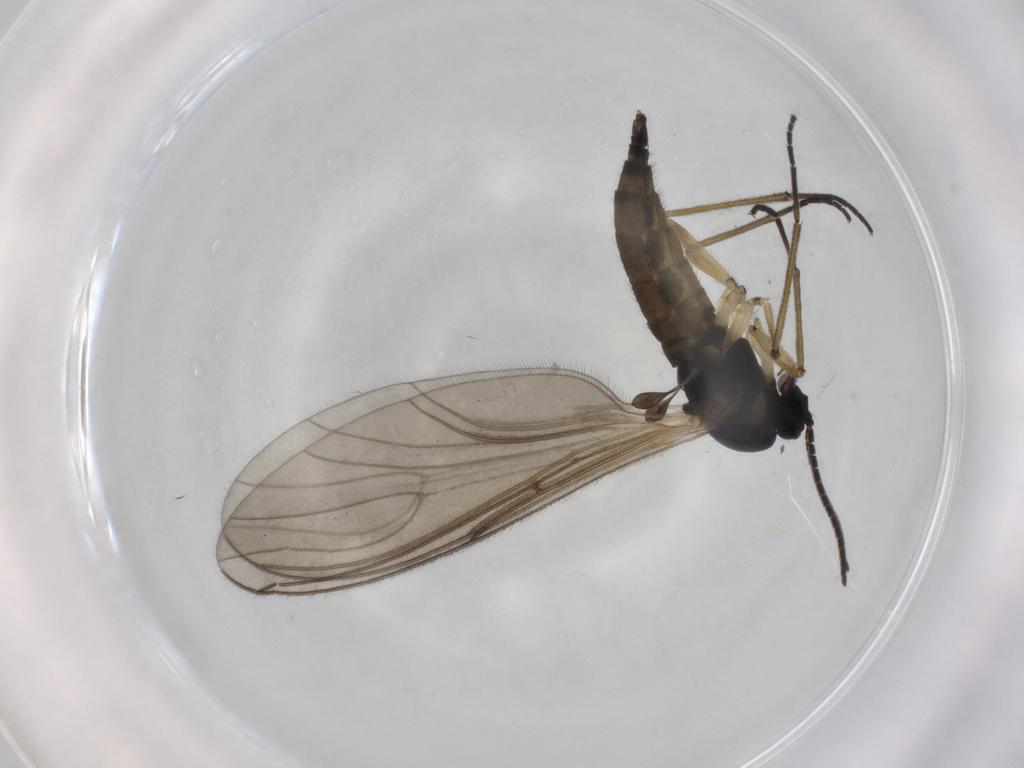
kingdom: Animalia
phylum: Arthropoda
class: Insecta
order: Diptera
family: Sciaridae
